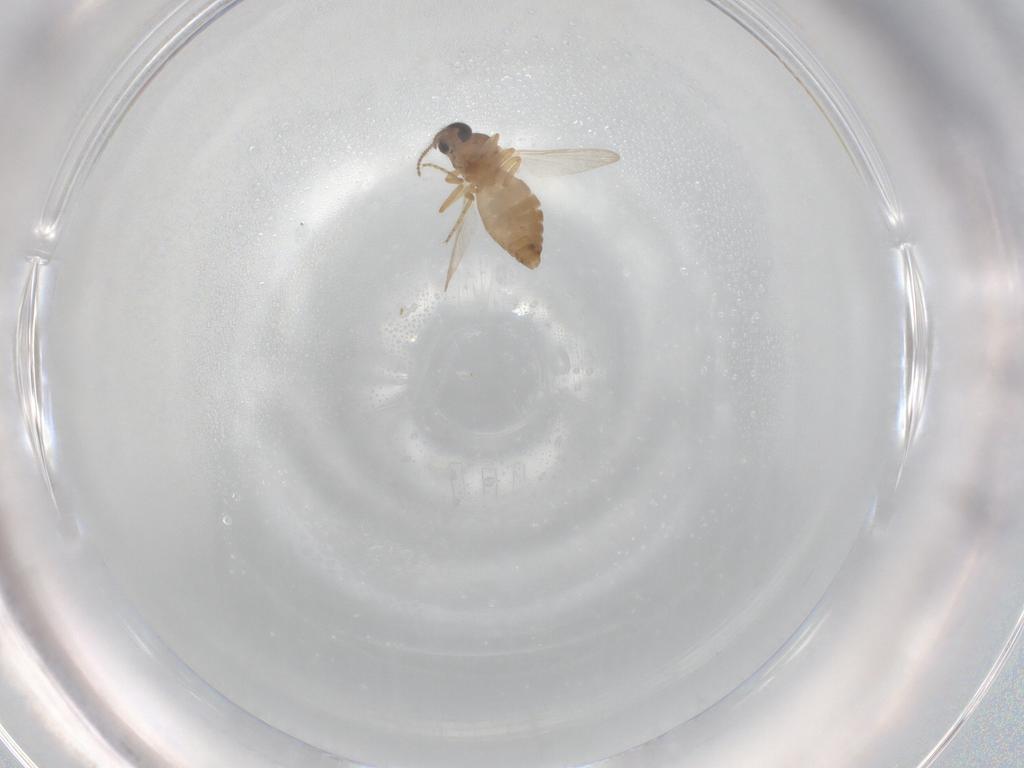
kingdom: Animalia
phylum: Arthropoda
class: Insecta
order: Diptera
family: Ceratopogonidae
